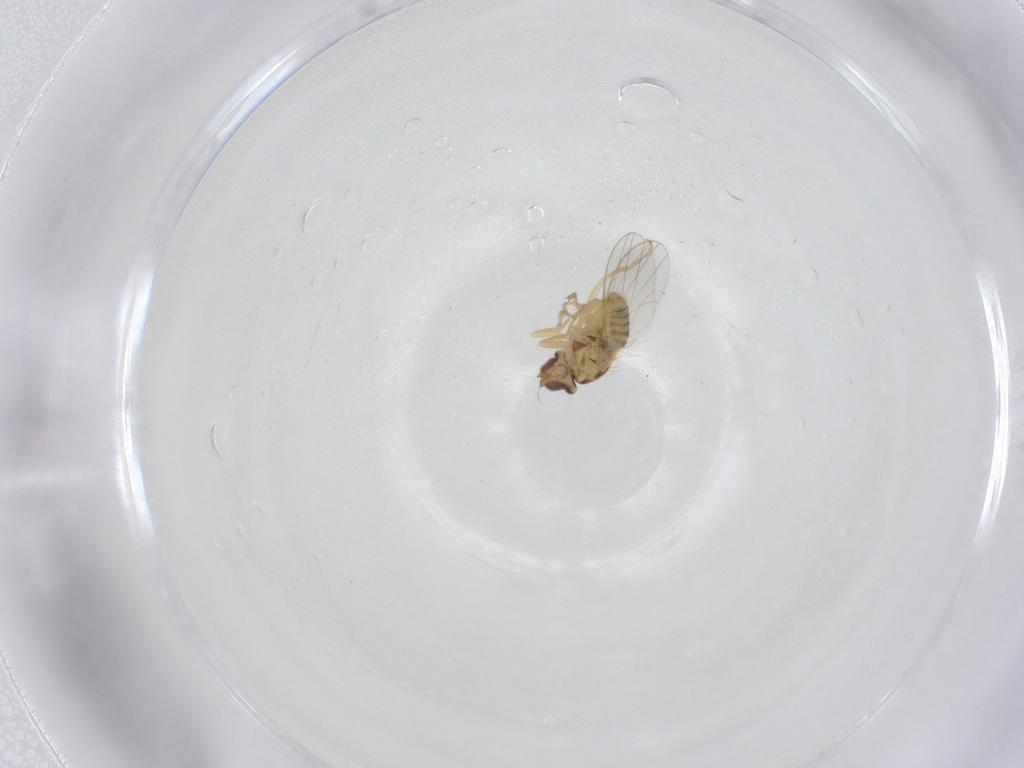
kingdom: Animalia
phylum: Arthropoda
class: Insecta
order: Diptera
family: Chyromyidae
